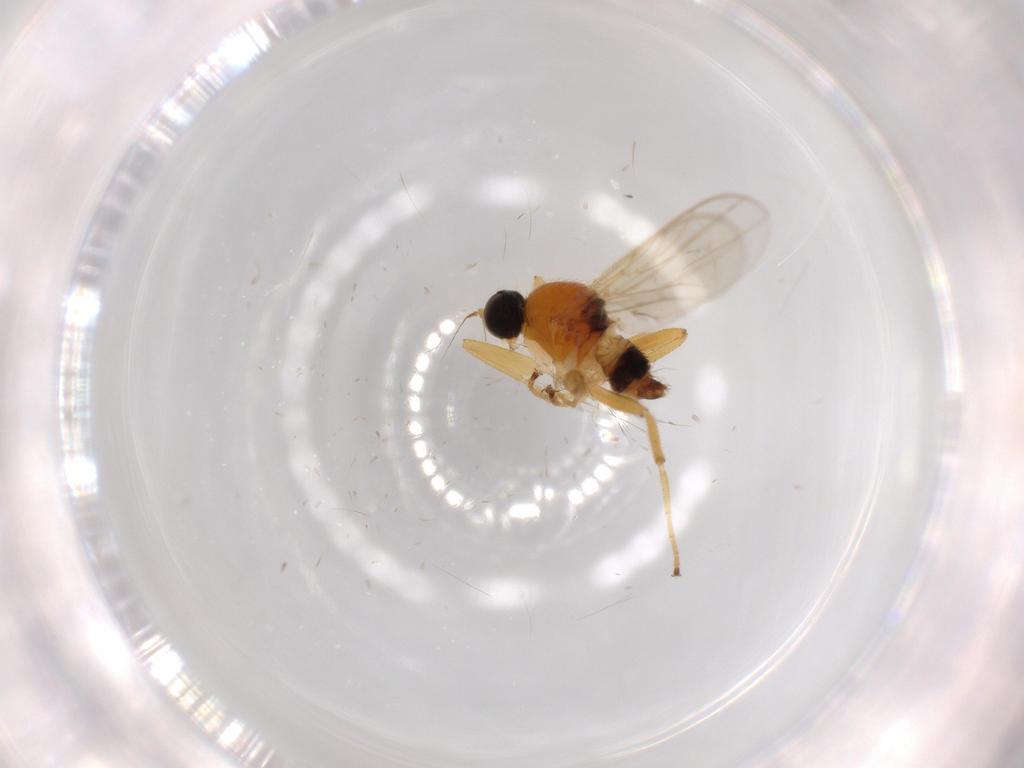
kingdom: Animalia
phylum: Arthropoda
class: Insecta
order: Diptera
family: Hybotidae
